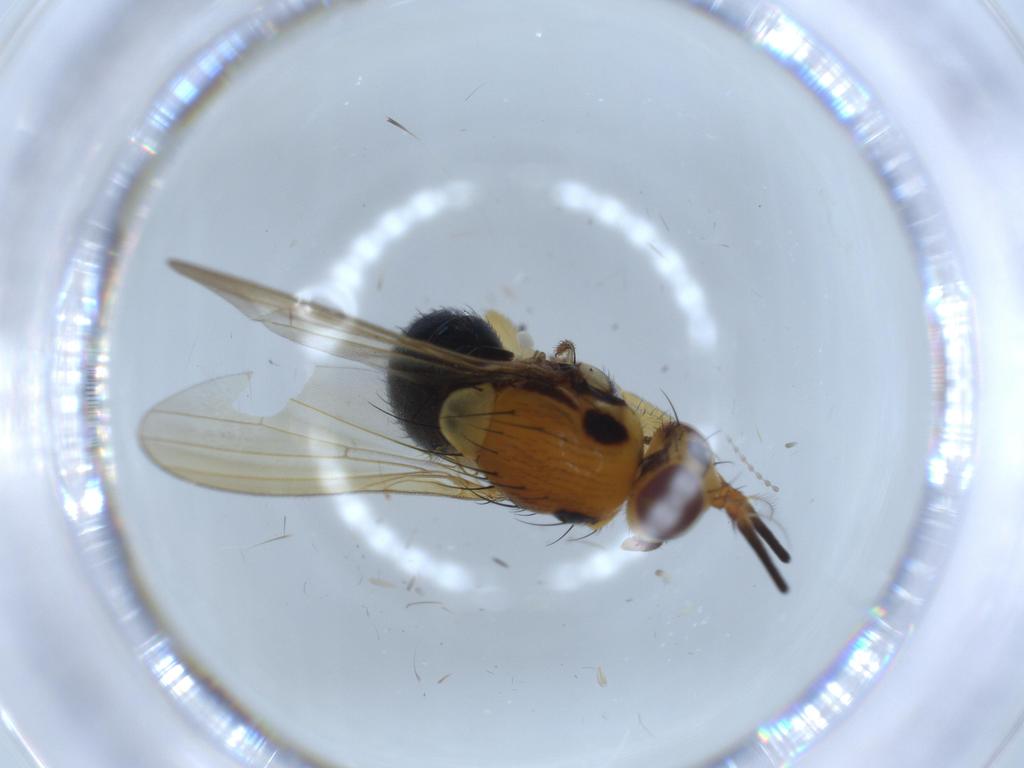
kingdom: Animalia
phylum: Arthropoda
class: Insecta
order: Diptera
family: Lauxaniidae
